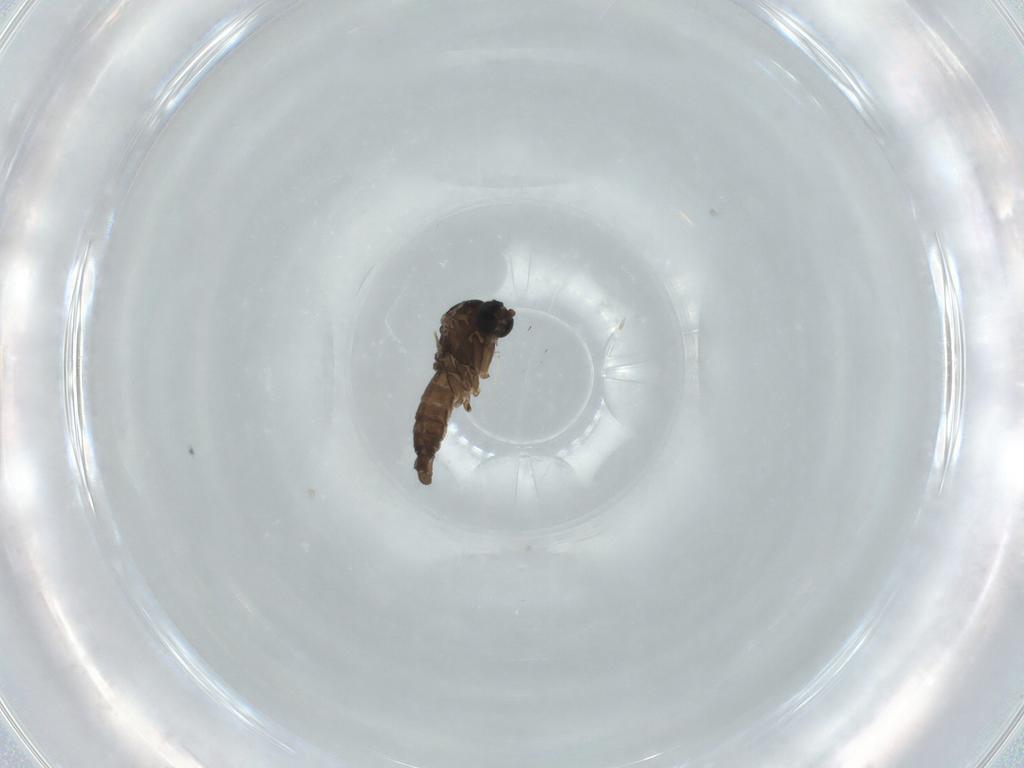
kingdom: Animalia
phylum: Arthropoda
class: Insecta
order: Diptera
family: Sciaridae
